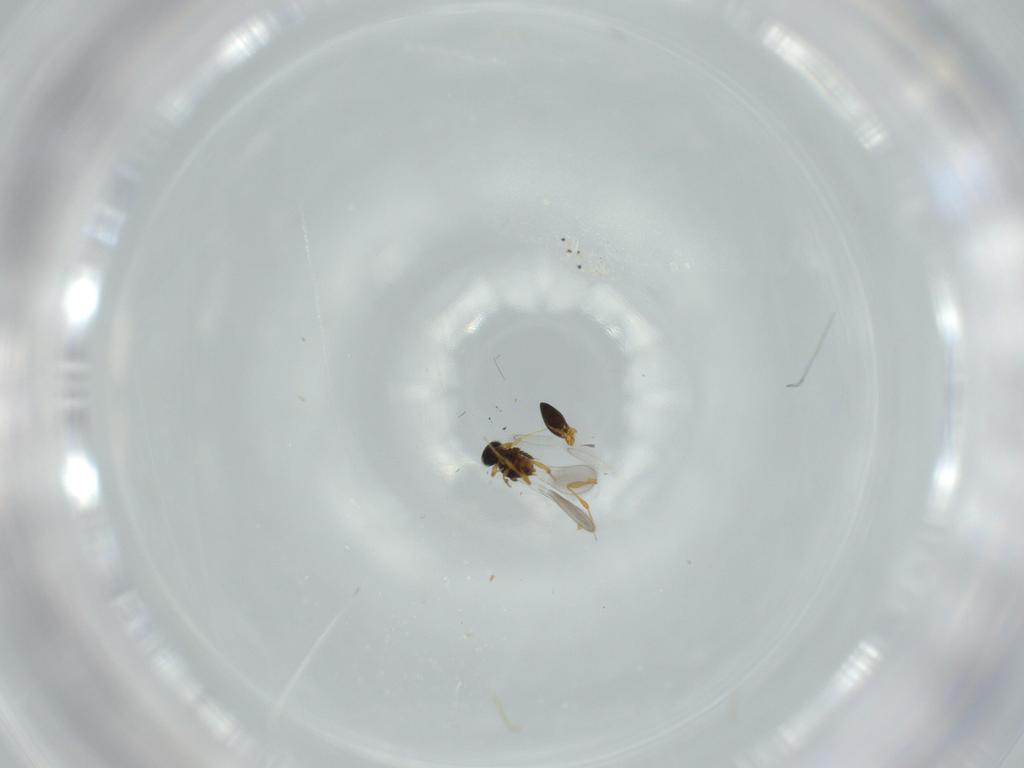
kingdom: Animalia
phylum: Arthropoda
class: Insecta
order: Hymenoptera
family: Platygastridae
